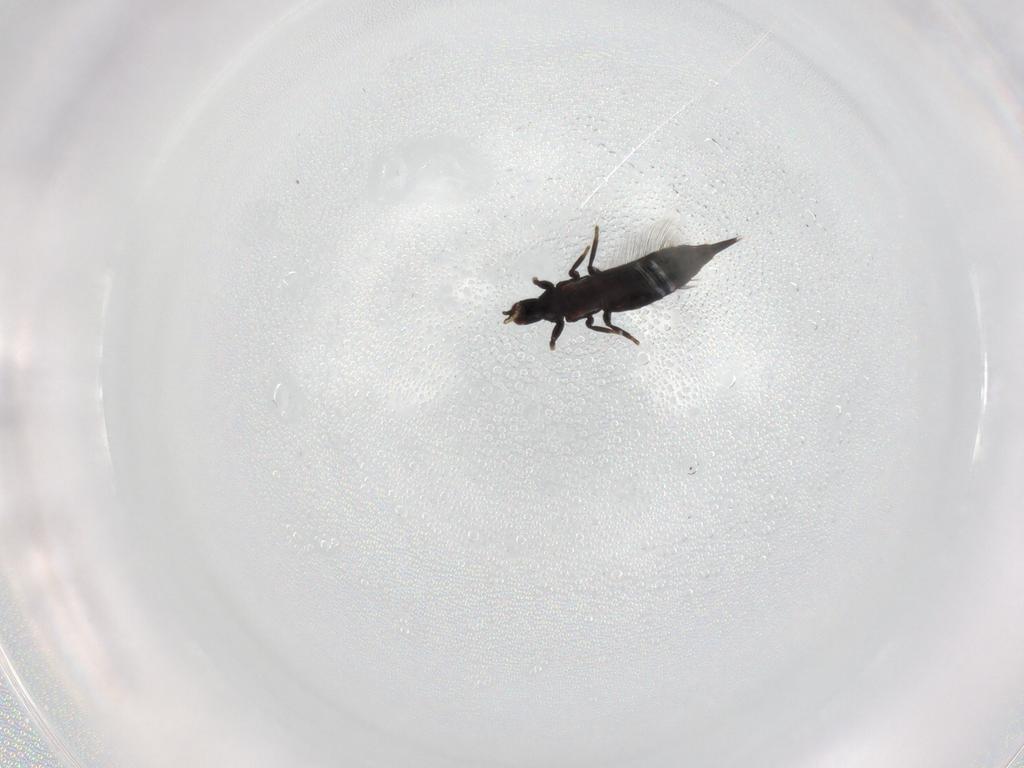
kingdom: Animalia
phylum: Arthropoda
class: Insecta
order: Thysanoptera
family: Phlaeothripidae
